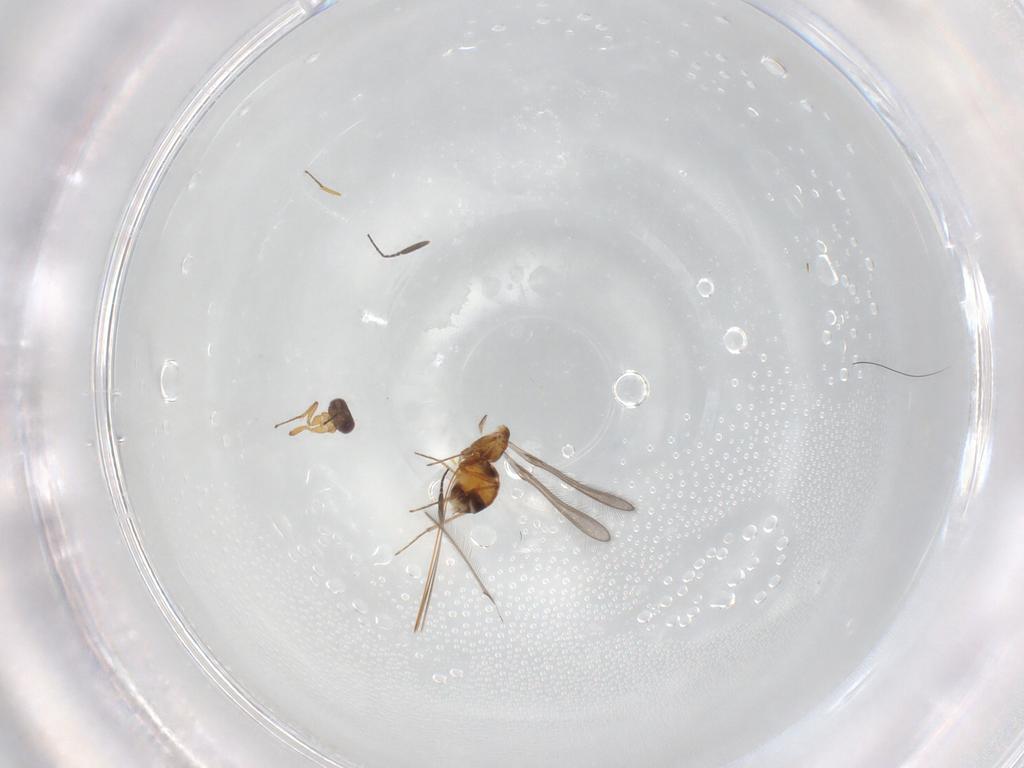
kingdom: Animalia
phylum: Arthropoda
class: Insecta
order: Hymenoptera
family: Mymaridae
